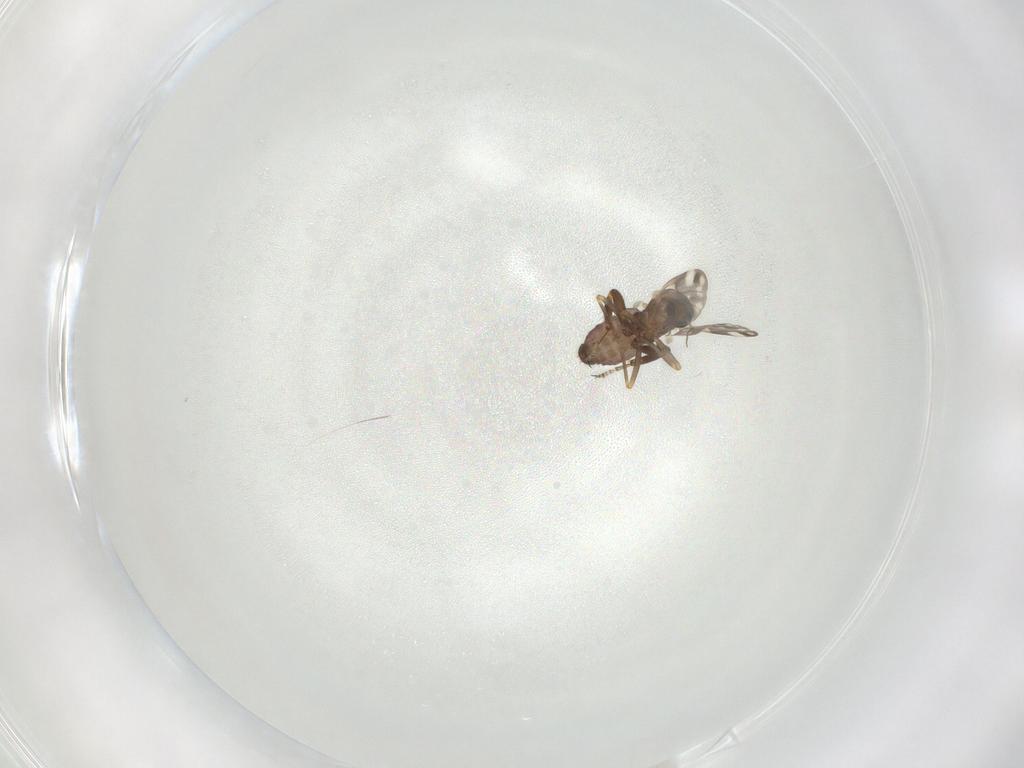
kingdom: Animalia
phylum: Arthropoda
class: Insecta
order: Diptera
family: Ceratopogonidae
